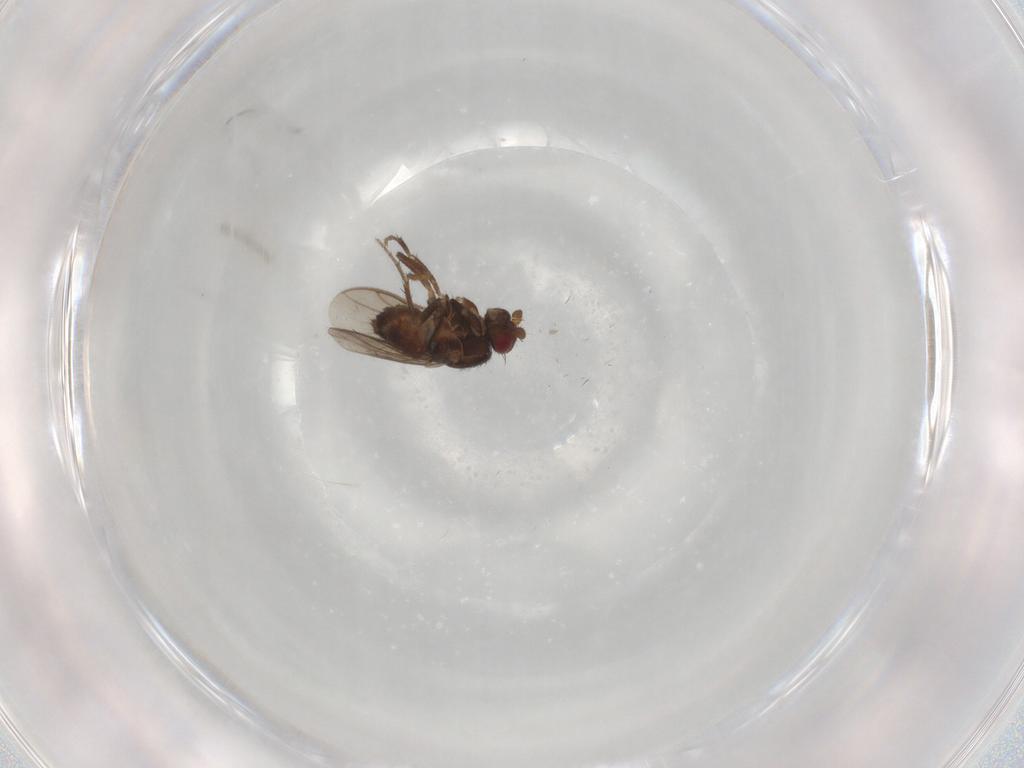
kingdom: Animalia
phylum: Arthropoda
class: Insecta
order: Diptera
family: Sphaeroceridae
